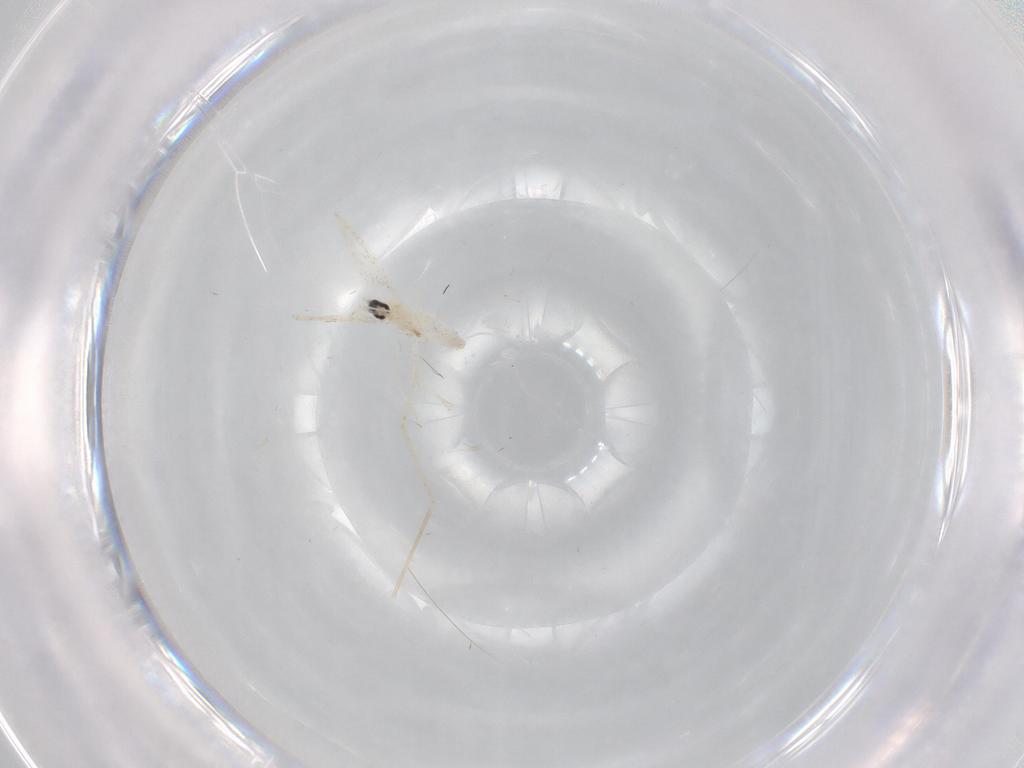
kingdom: Animalia
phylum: Arthropoda
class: Insecta
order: Diptera
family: Cecidomyiidae
